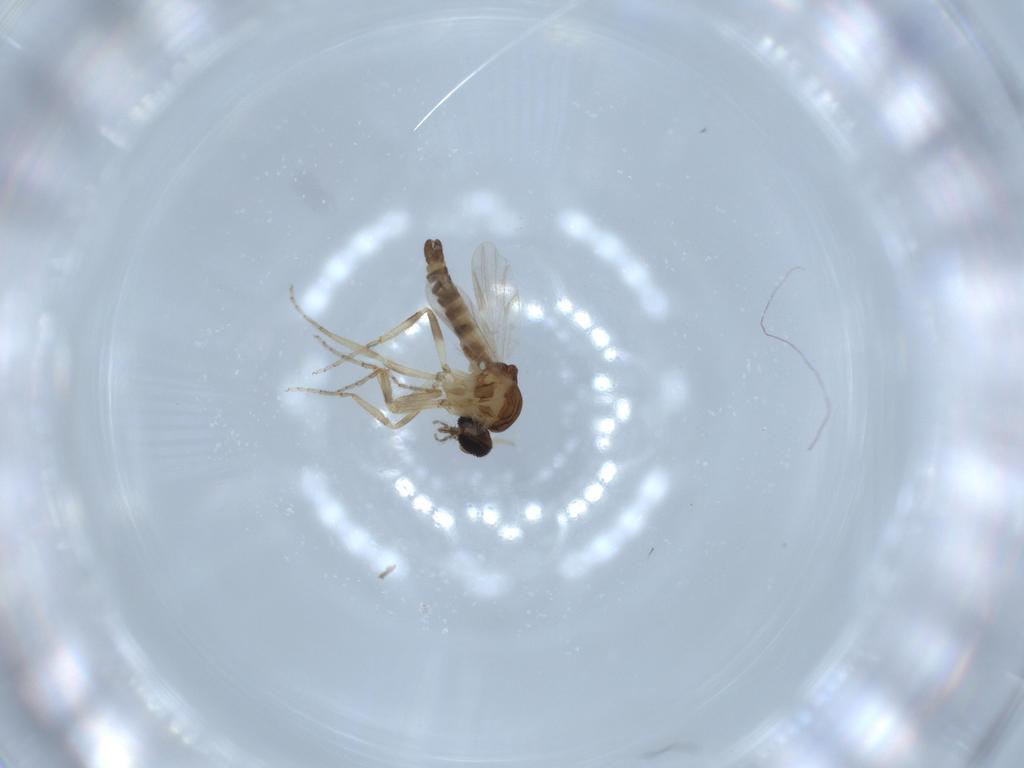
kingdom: Animalia
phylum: Arthropoda
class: Insecta
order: Diptera
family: Ceratopogonidae
